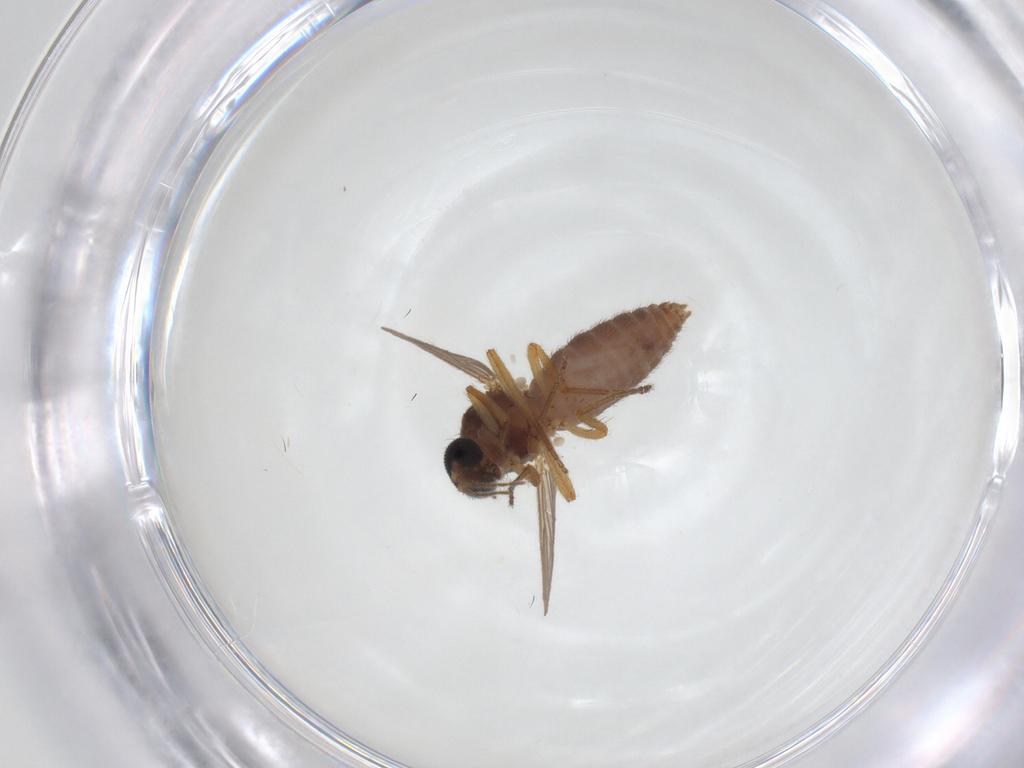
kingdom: Animalia
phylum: Arthropoda
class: Insecta
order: Diptera
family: Ceratopogonidae
